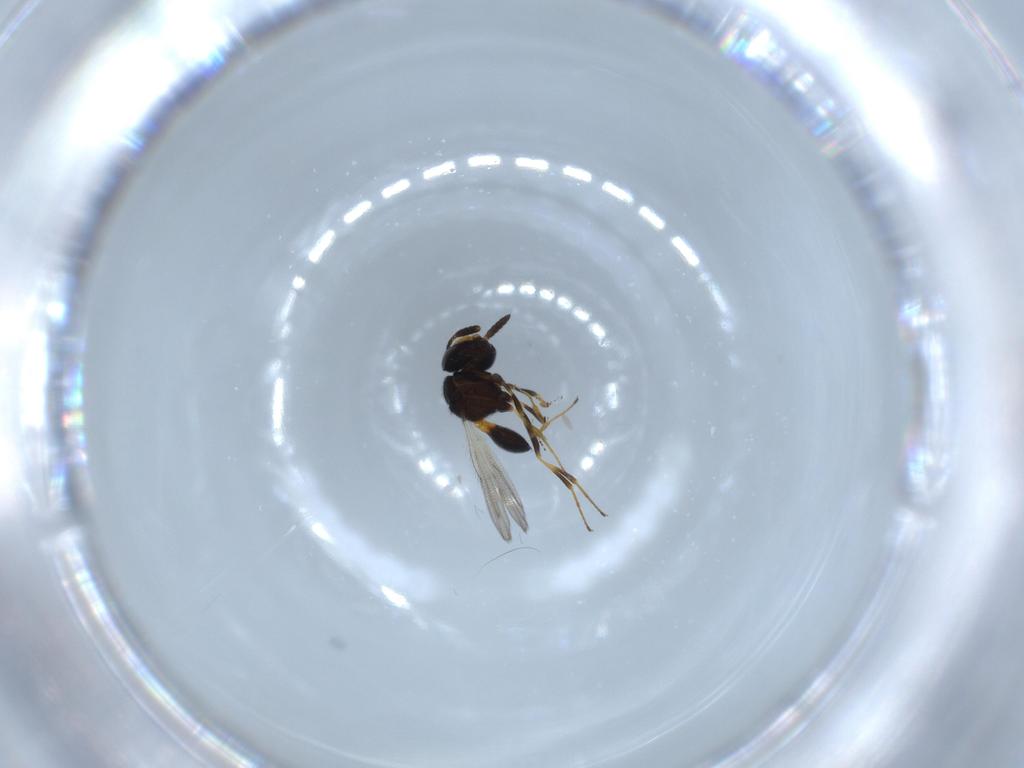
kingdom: Animalia
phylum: Arthropoda
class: Insecta
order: Hymenoptera
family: Scelionidae
